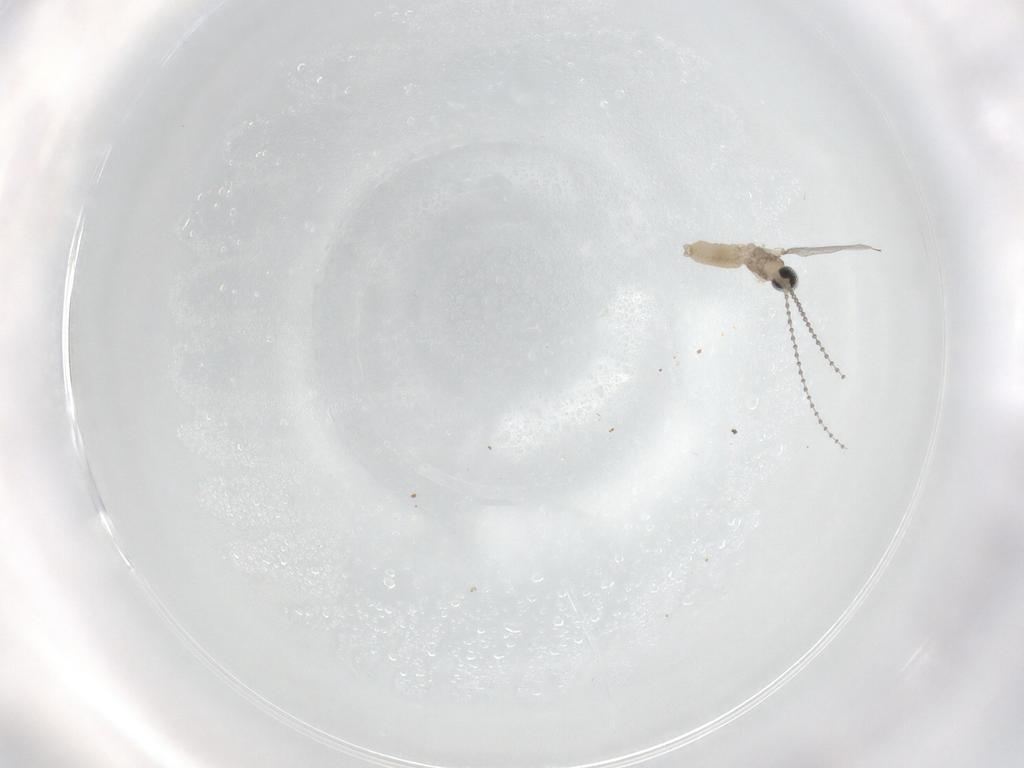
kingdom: Animalia
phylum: Arthropoda
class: Insecta
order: Diptera
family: Cecidomyiidae
